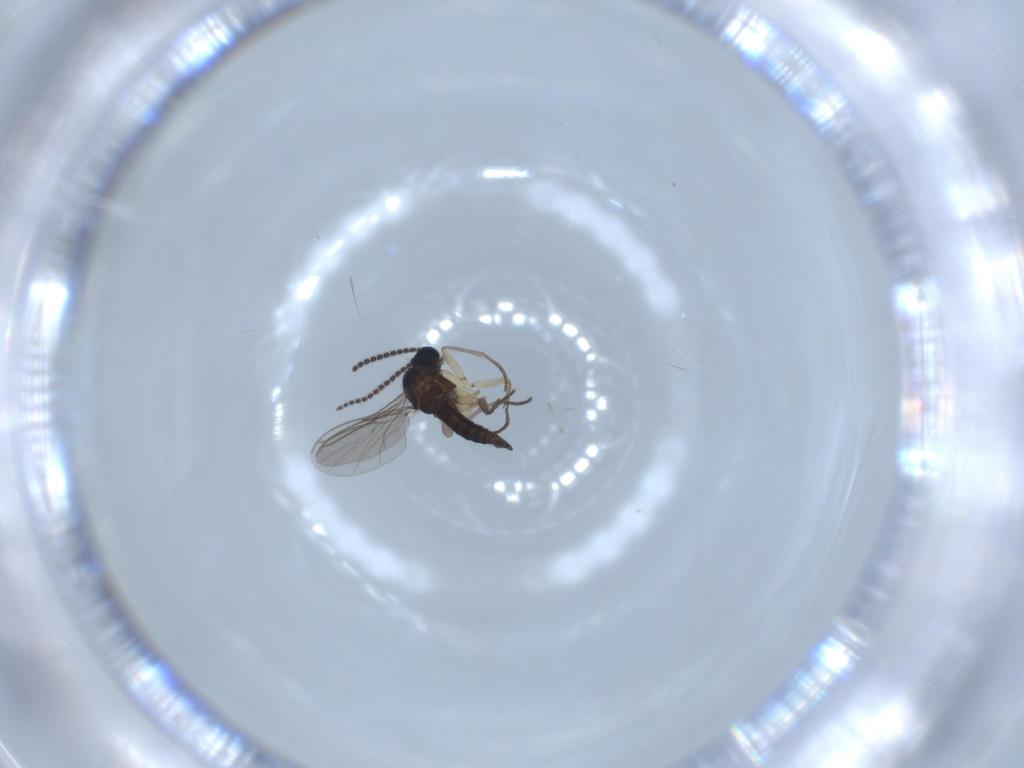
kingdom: Animalia
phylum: Arthropoda
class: Insecta
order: Diptera
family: Sciaridae
